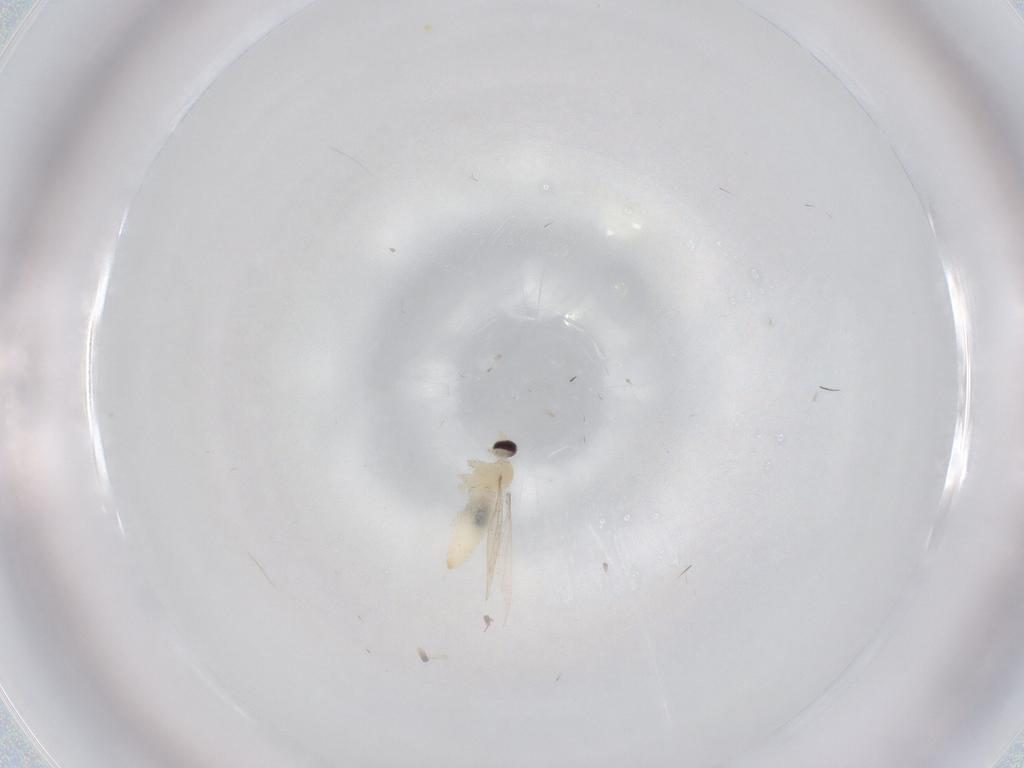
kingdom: Animalia
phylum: Arthropoda
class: Insecta
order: Diptera
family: Cecidomyiidae
